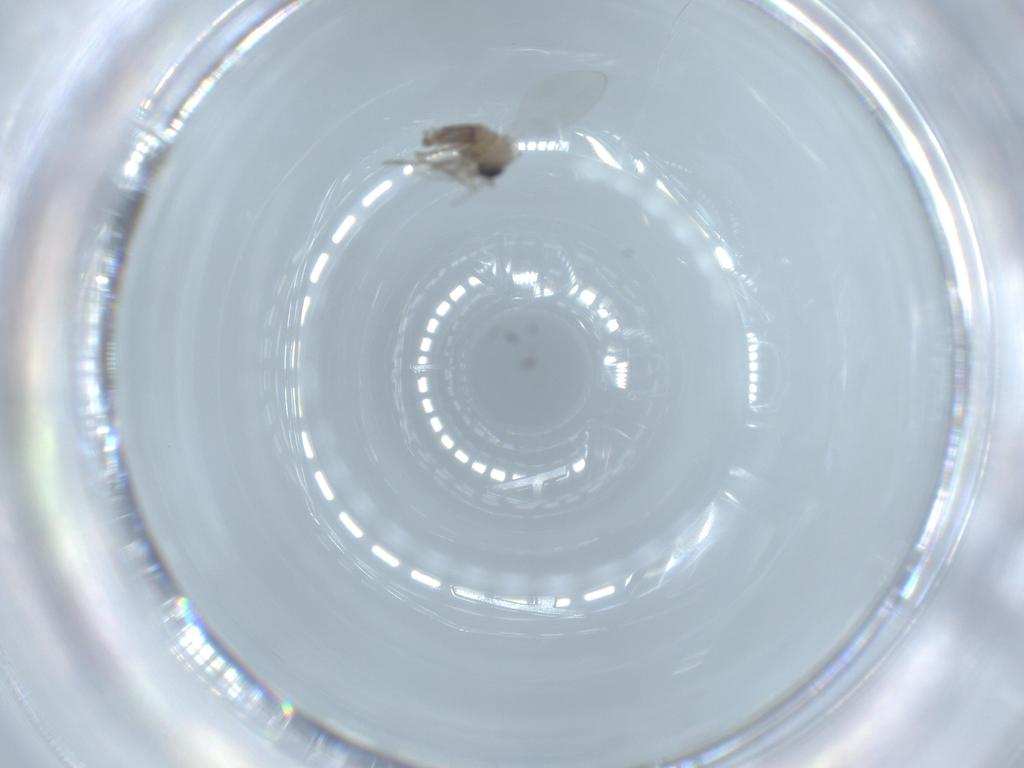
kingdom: Animalia
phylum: Arthropoda
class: Insecta
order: Diptera
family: Psychodidae
